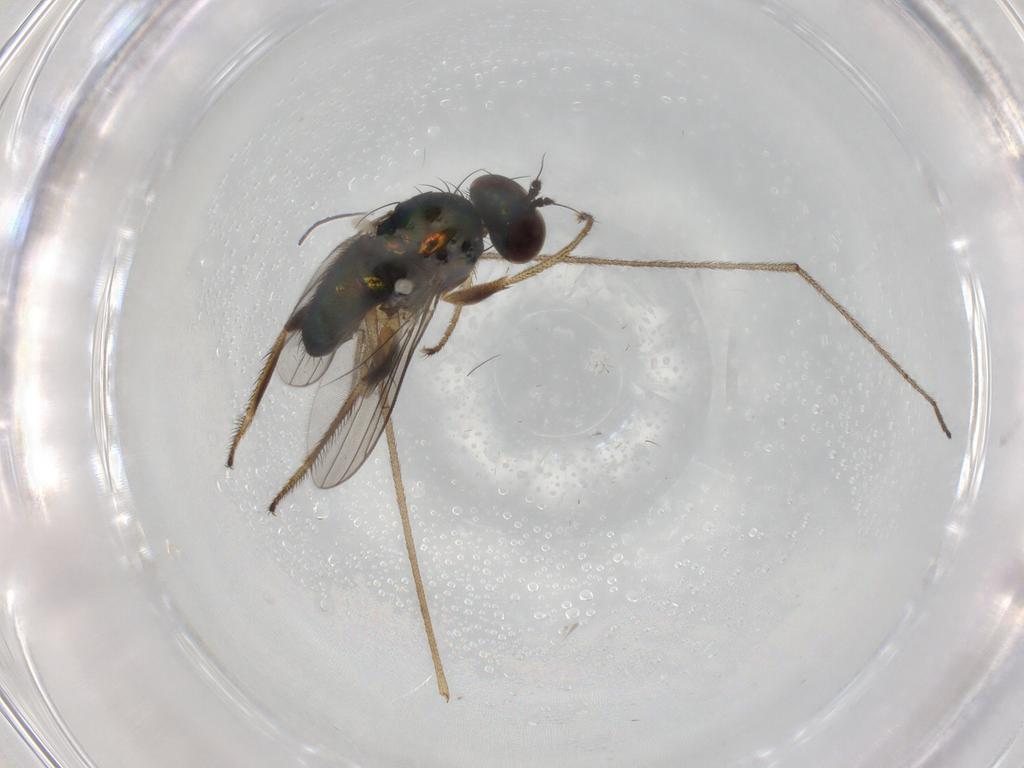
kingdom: Animalia
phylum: Arthropoda
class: Insecta
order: Diptera
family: Dolichopodidae
